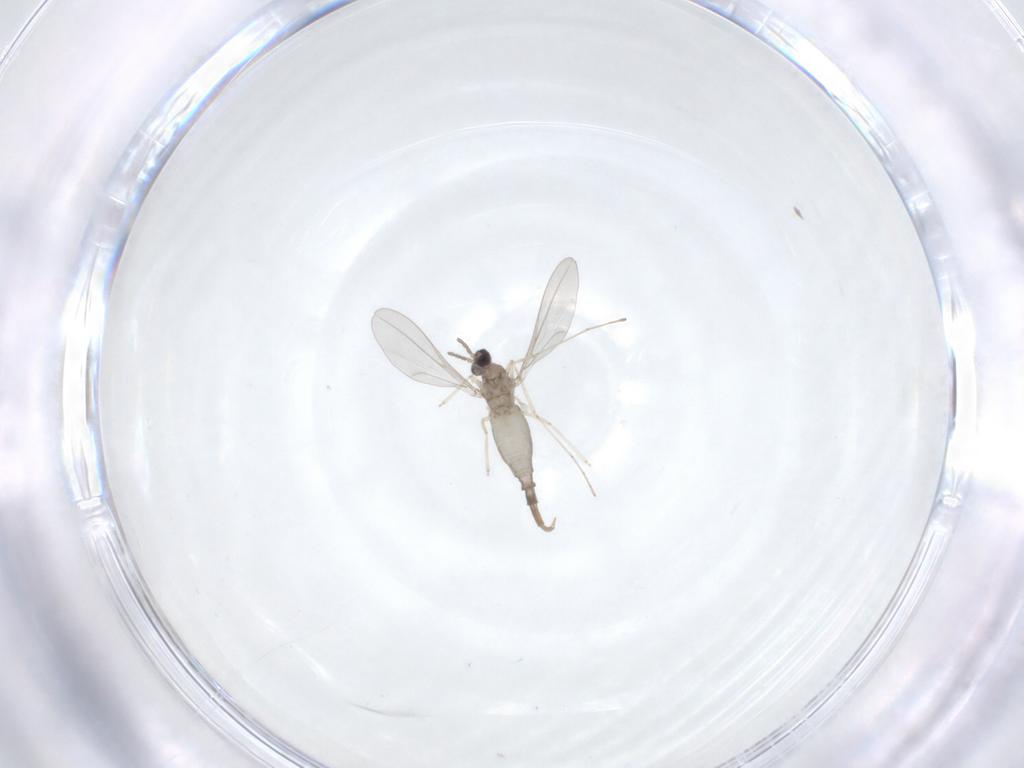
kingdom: Animalia
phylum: Arthropoda
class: Insecta
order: Diptera
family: Cecidomyiidae
